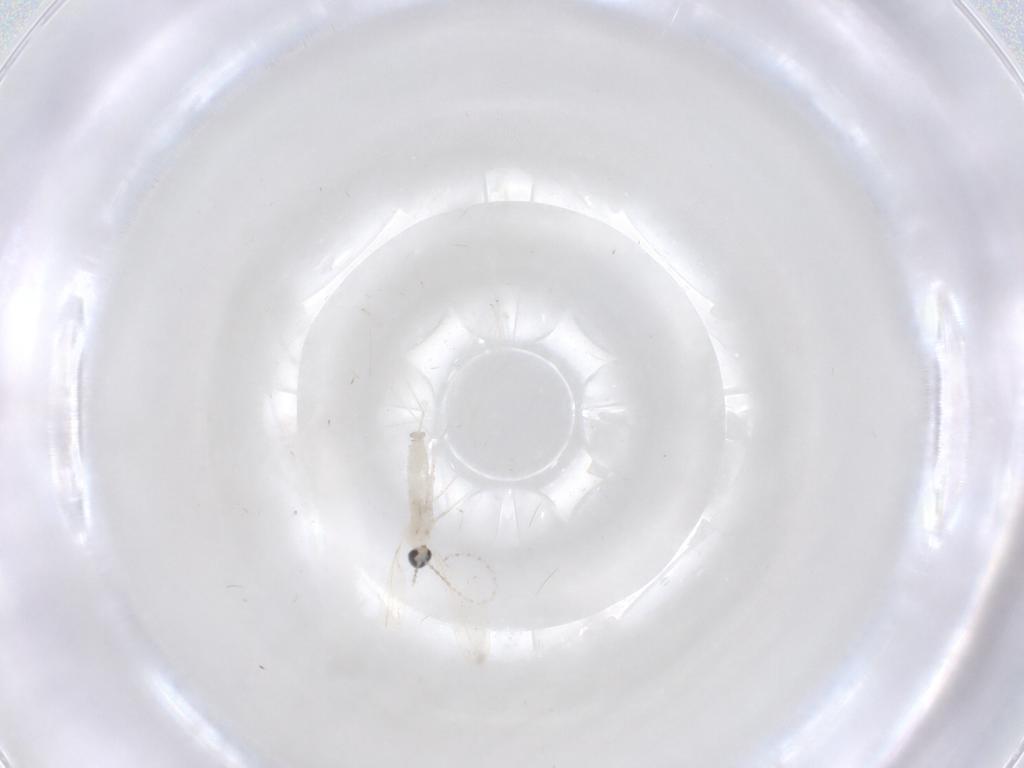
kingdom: Animalia
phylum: Arthropoda
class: Insecta
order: Diptera
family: Cecidomyiidae
